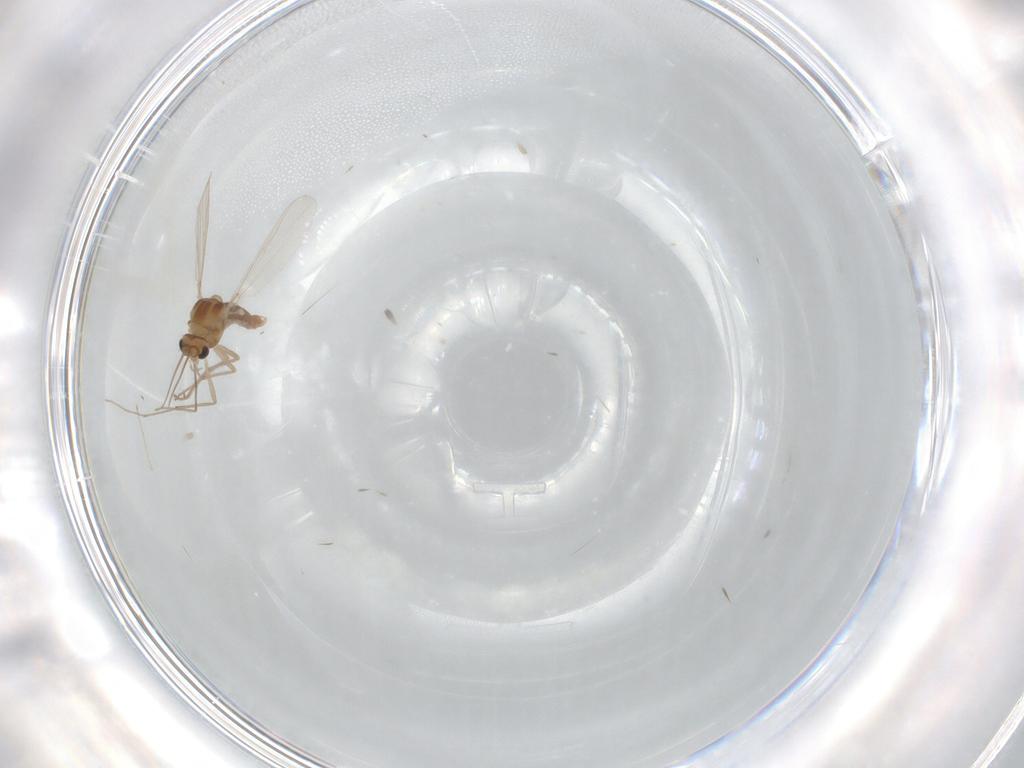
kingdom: Animalia
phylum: Arthropoda
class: Insecta
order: Diptera
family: Chironomidae
